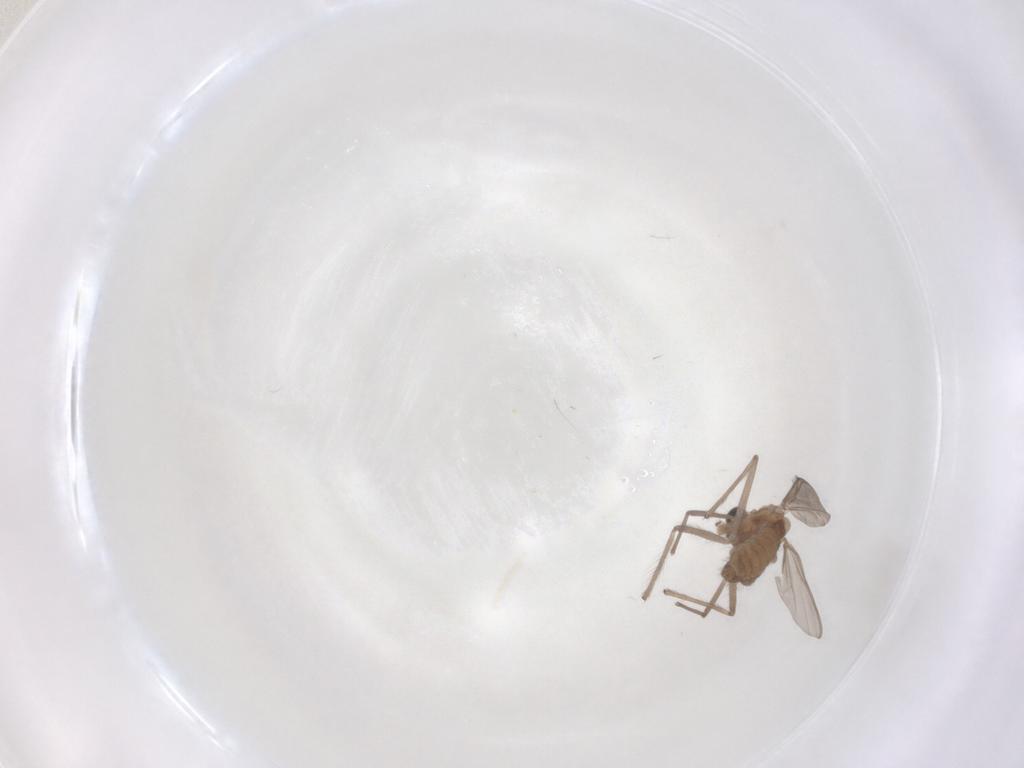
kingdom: Animalia
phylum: Arthropoda
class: Insecta
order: Diptera
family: Chironomidae
